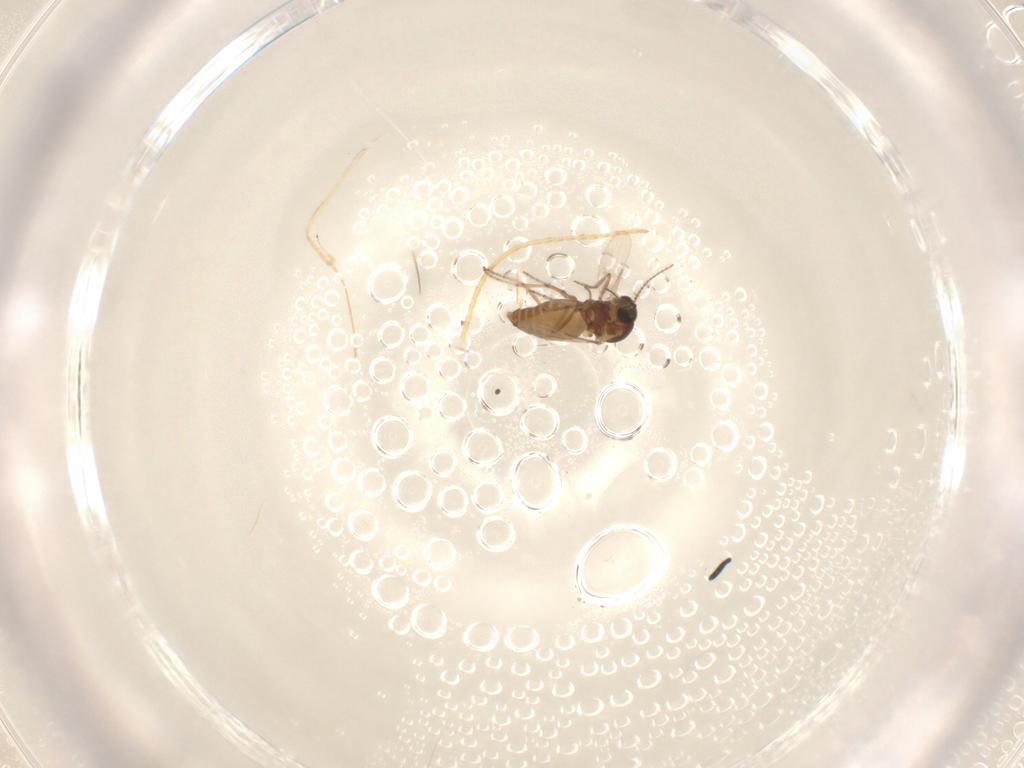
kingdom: Animalia
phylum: Arthropoda
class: Insecta
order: Diptera
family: Ceratopogonidae
